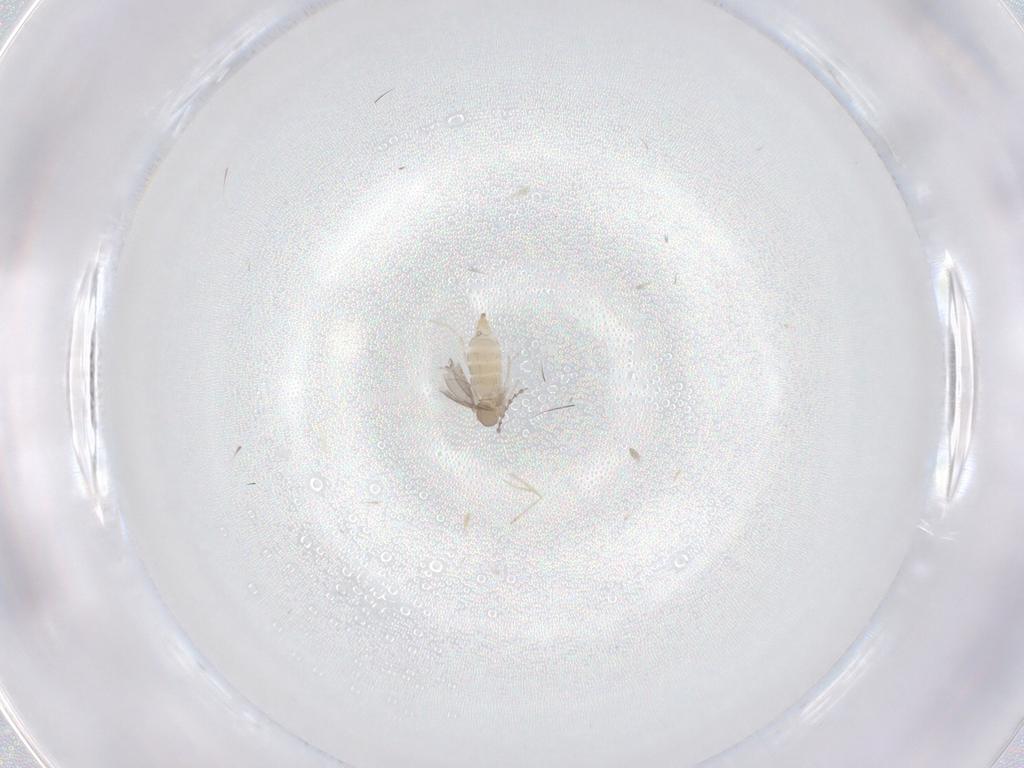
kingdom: Animalia
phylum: Arthropoda
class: Insecta
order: Diptera
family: Cecidomyiidae
